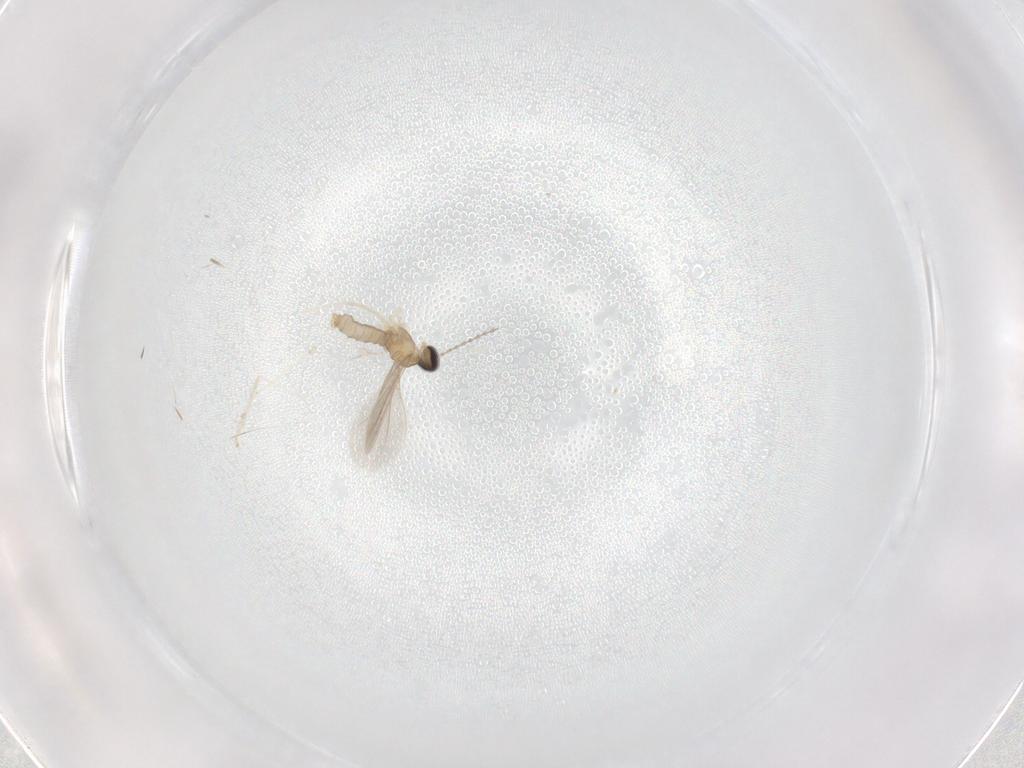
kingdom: Animalia
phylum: Arthropoda
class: Insecta
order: Diptera
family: Cecidomyiidae
